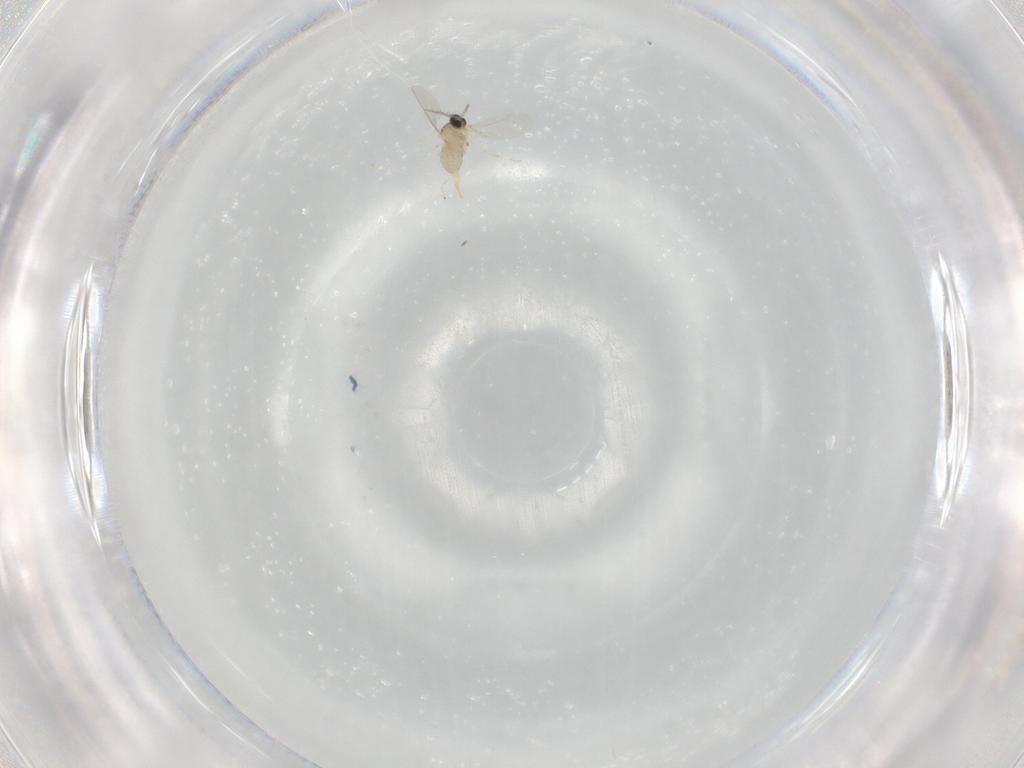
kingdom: Animalia
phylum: Arthropoda
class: Insecta
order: Diptera
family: Cecidomyiidae
